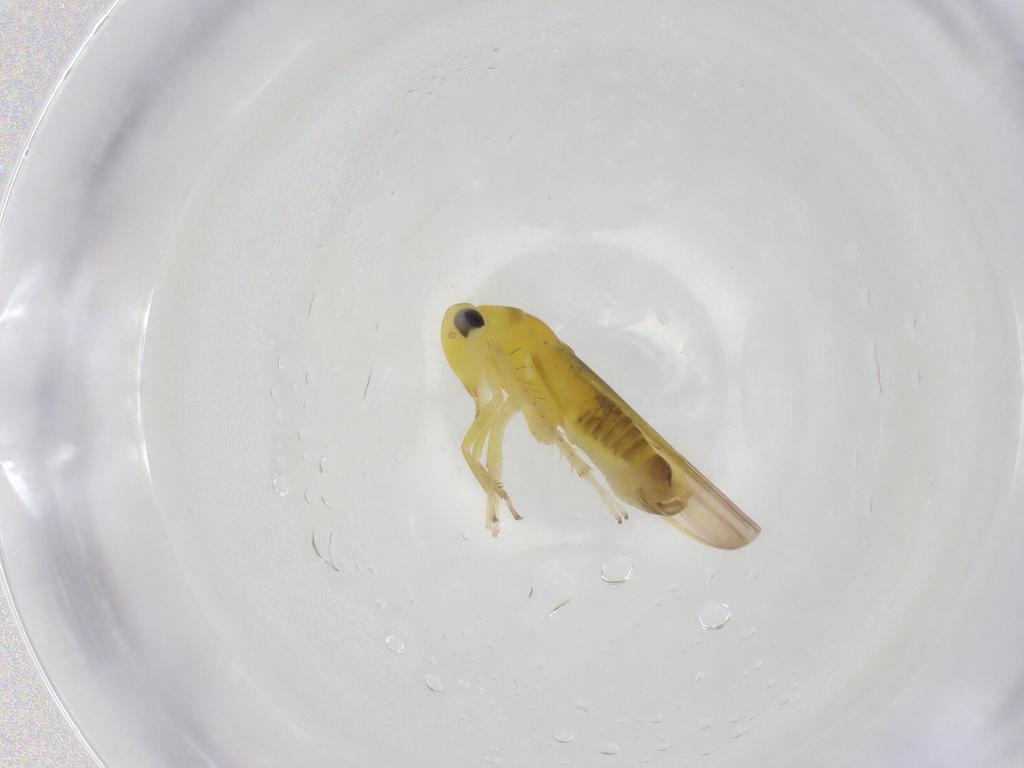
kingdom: Animalia
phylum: Arthropoda
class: Insecta
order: Hemiptera
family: Cicadellidae
